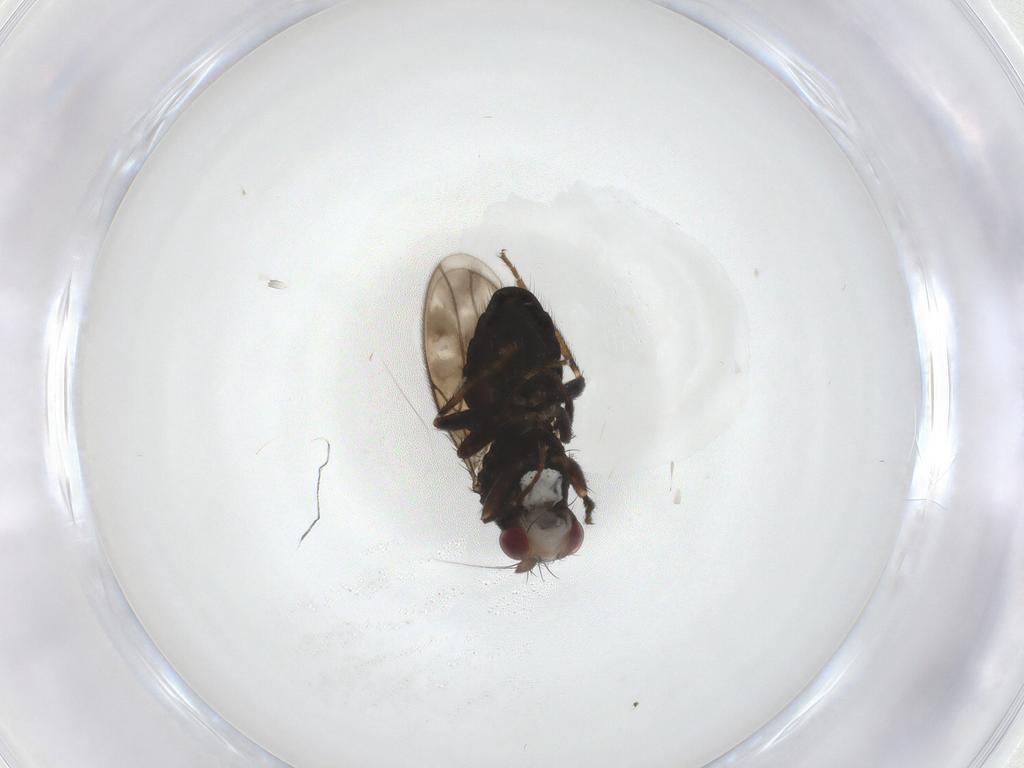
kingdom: Animalia
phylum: Arthropoda
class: Insecta
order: Diptera
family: Sphaeroceridae
